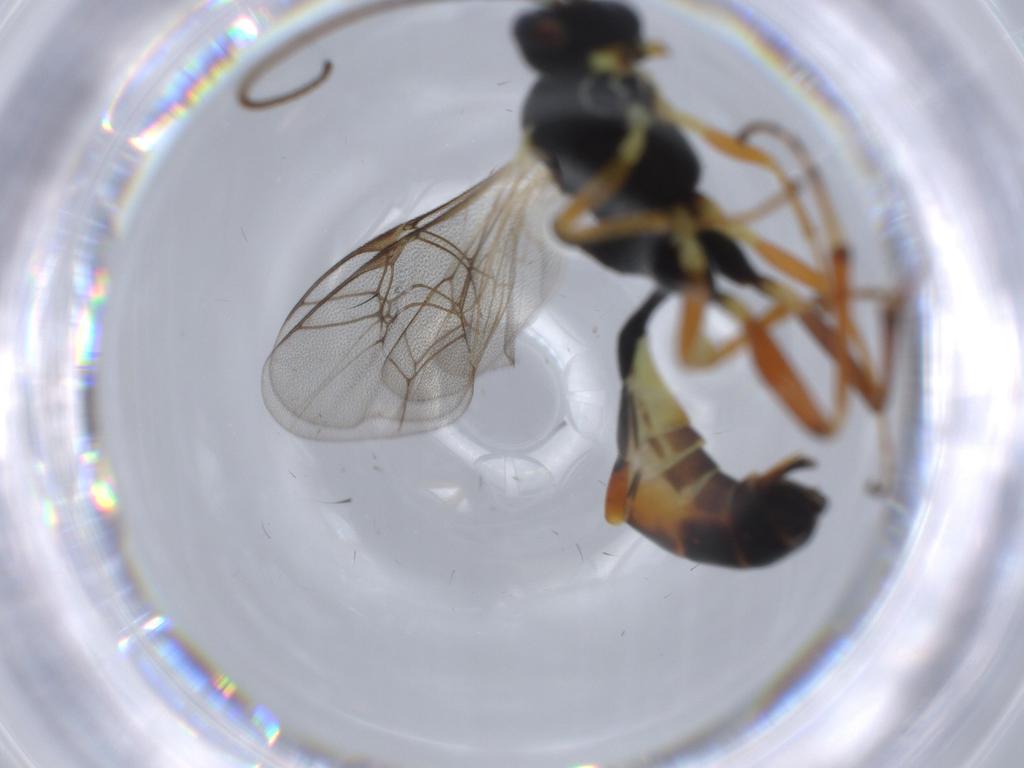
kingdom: Animalia
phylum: Arthropoda
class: Insecta
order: Hymenoptera
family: Ichneumonidae
